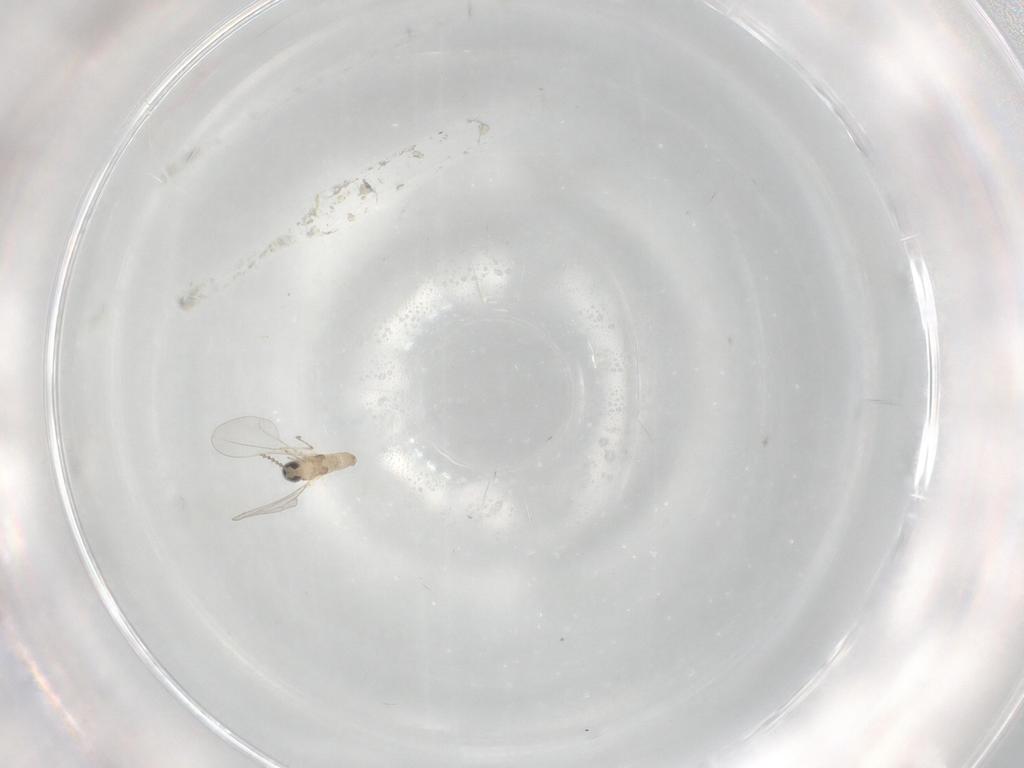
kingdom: Animalia
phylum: Arthropoda
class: Insecta
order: Diptera
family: Cecidomyiidae
